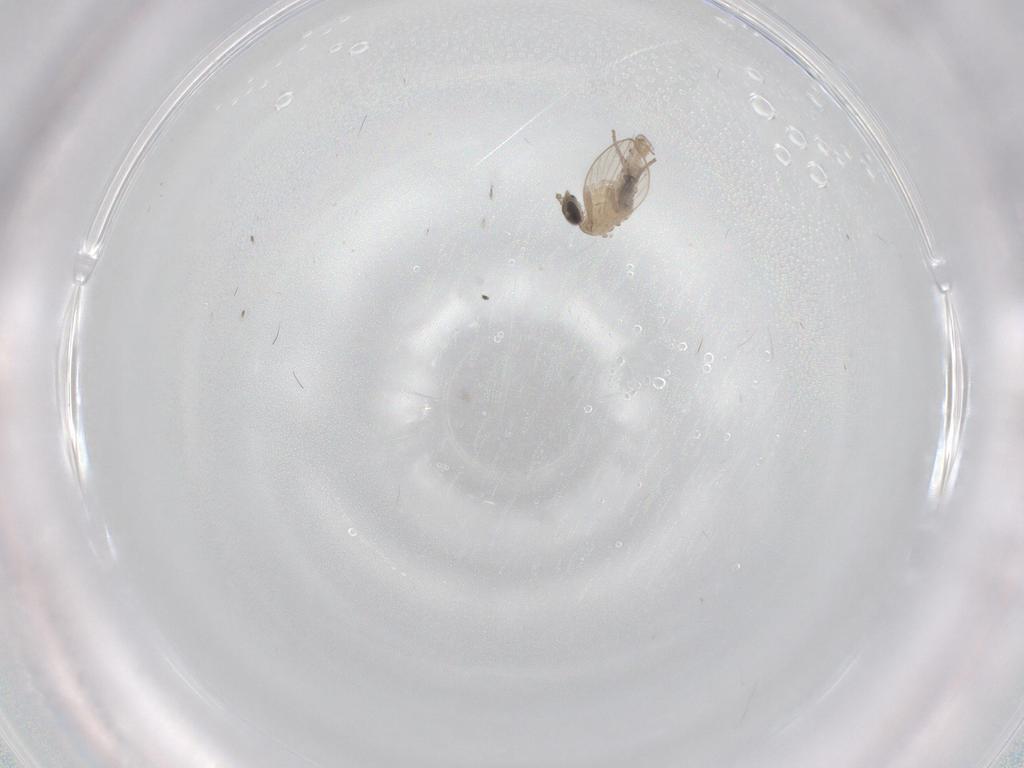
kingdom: Animalia
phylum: Arthropoda
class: Insecta
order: Diptera
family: Psychodidae
